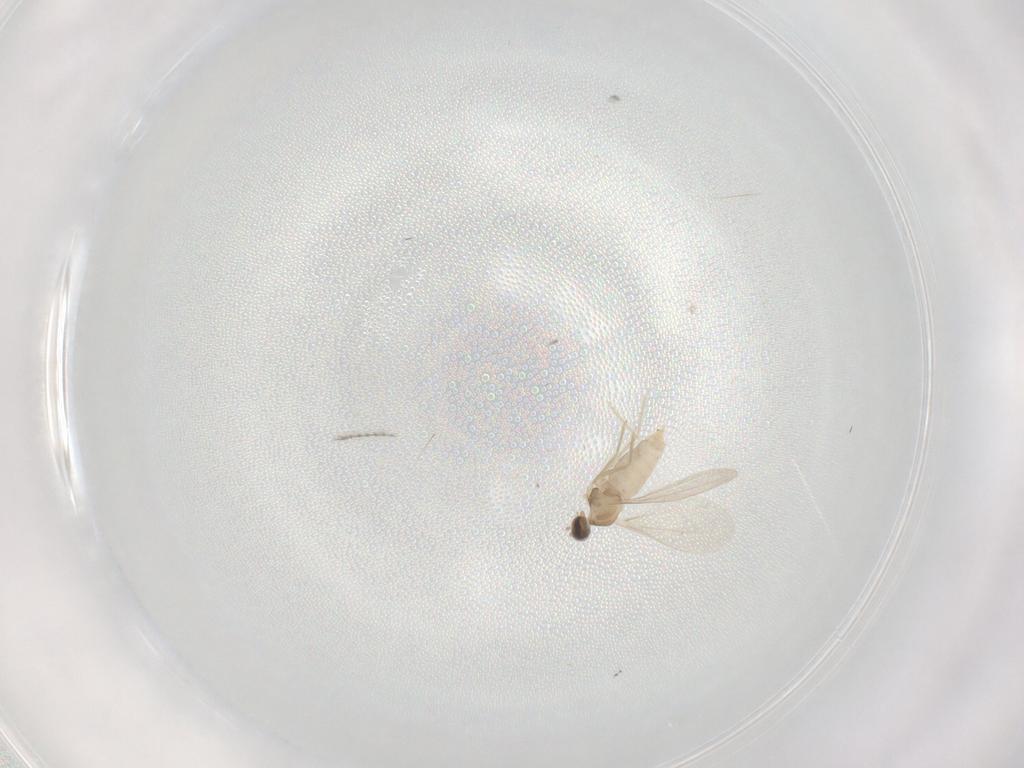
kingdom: Animalia
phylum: Arthropoda
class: Insecta
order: Diptera
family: Cecidomyiidae
